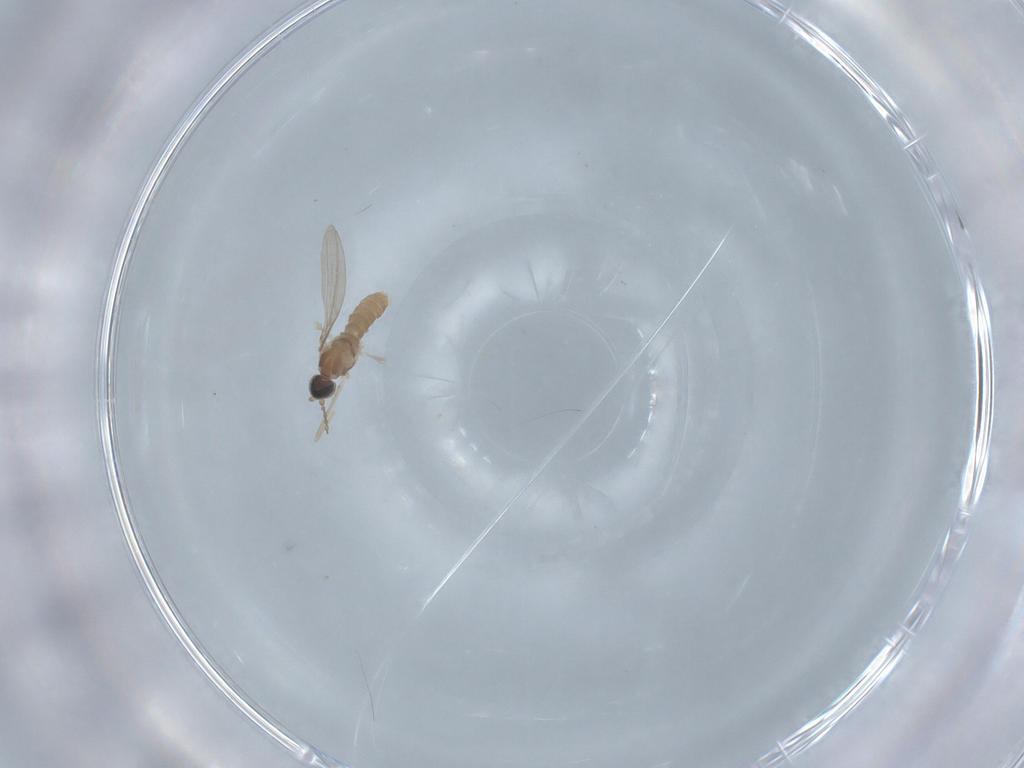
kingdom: Animalia
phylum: Arthropoda
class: Insecta
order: Diptera
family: Cecidomyiidae
